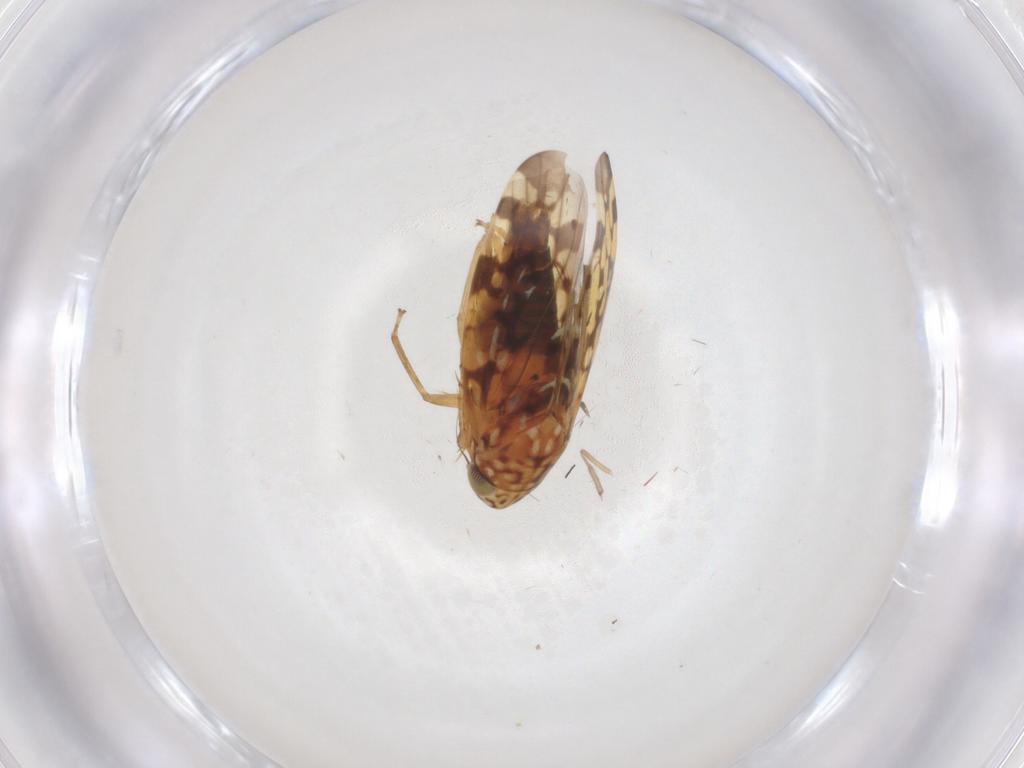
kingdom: Animalia
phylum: Arthropoda
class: Insecta
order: Hemiptera
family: Cicadellidae
